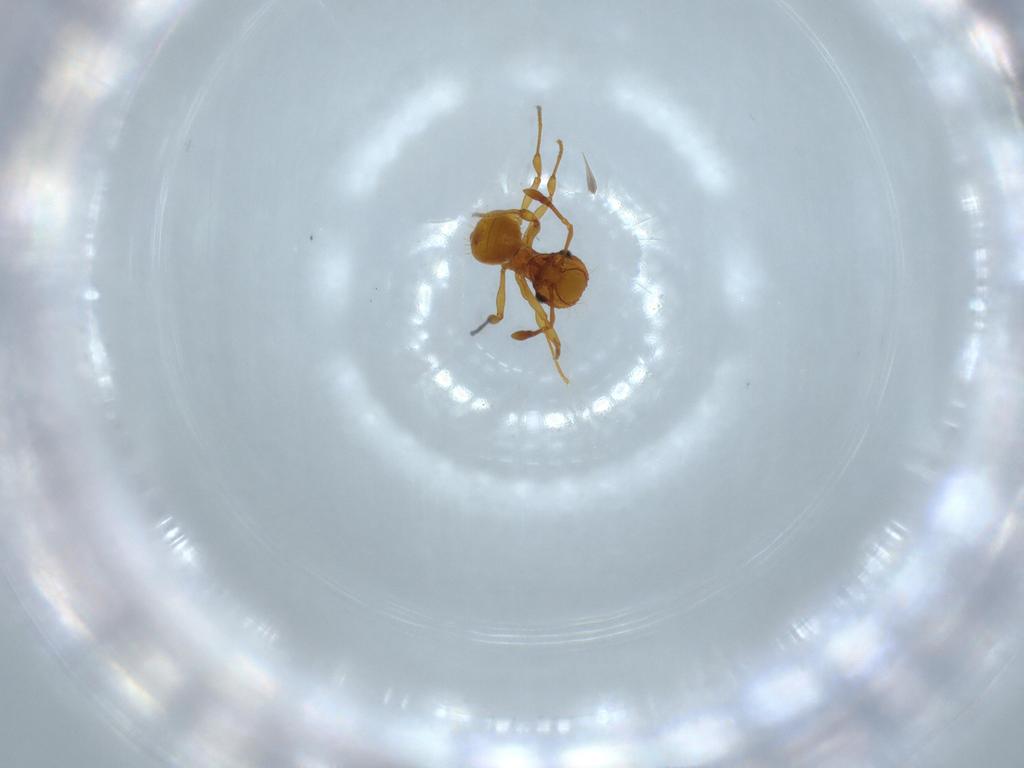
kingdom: Animalia
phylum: Arthropoda
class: Insecta
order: Hymenoptera
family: Formicidae
